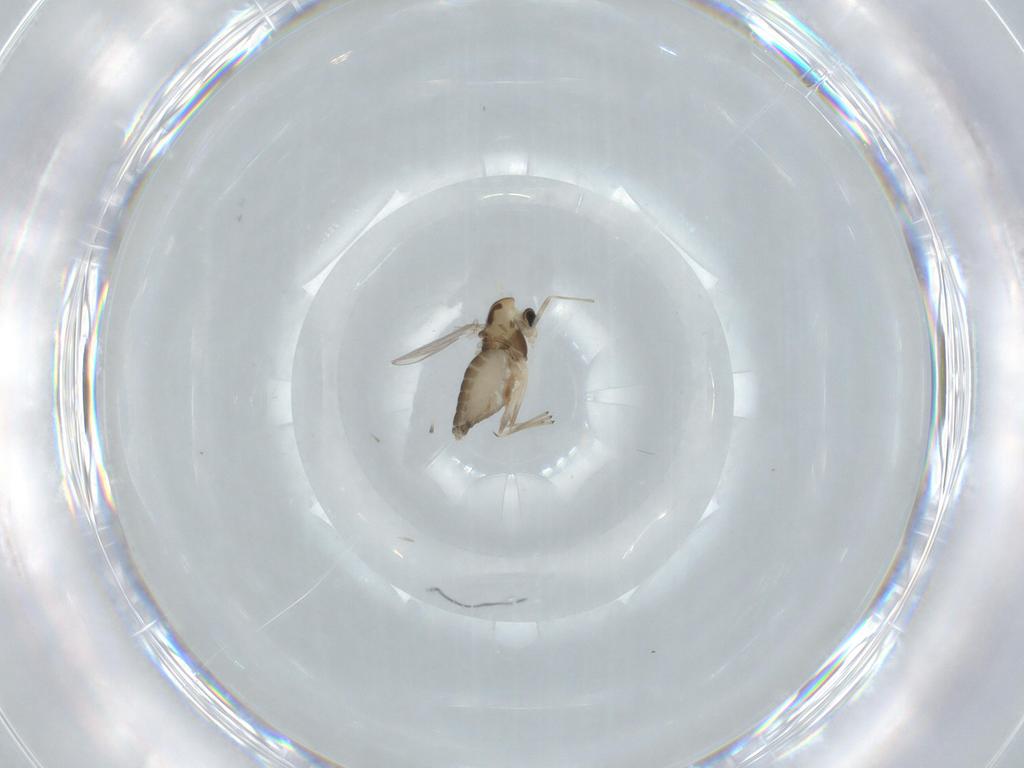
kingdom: Animalia
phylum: Arthropoda
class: Insecta
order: Diptera
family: Chironomidae
